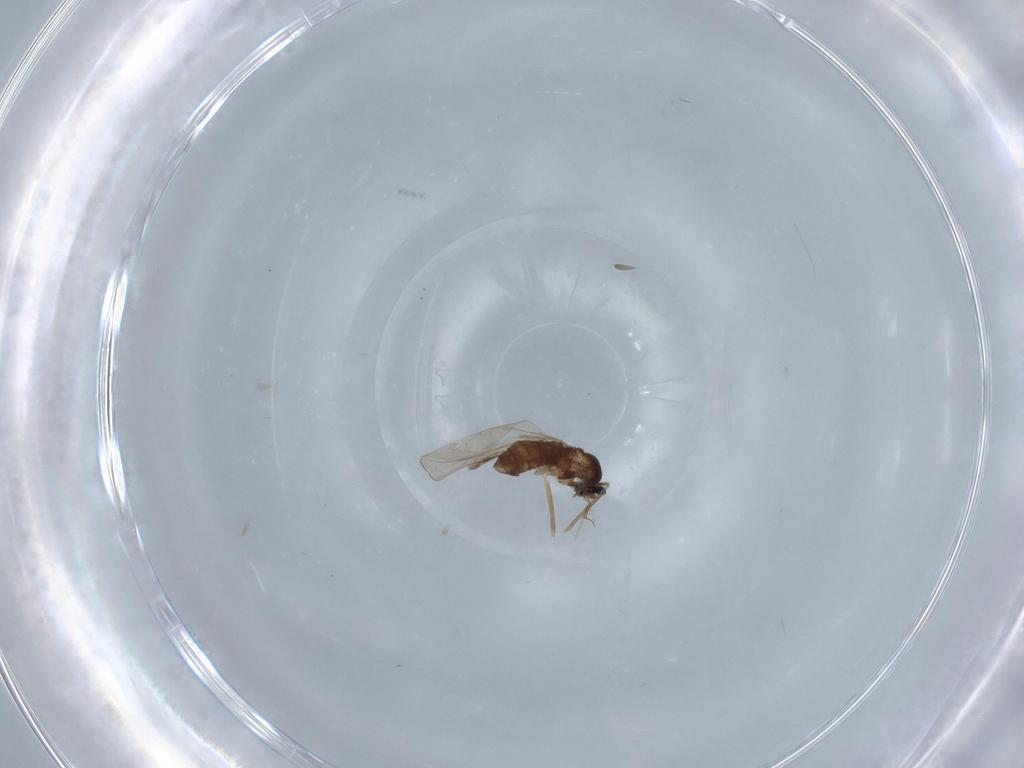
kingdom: Animalia
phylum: Arthropoda
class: Insecta
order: Diptera
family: Cecidomyiidae
